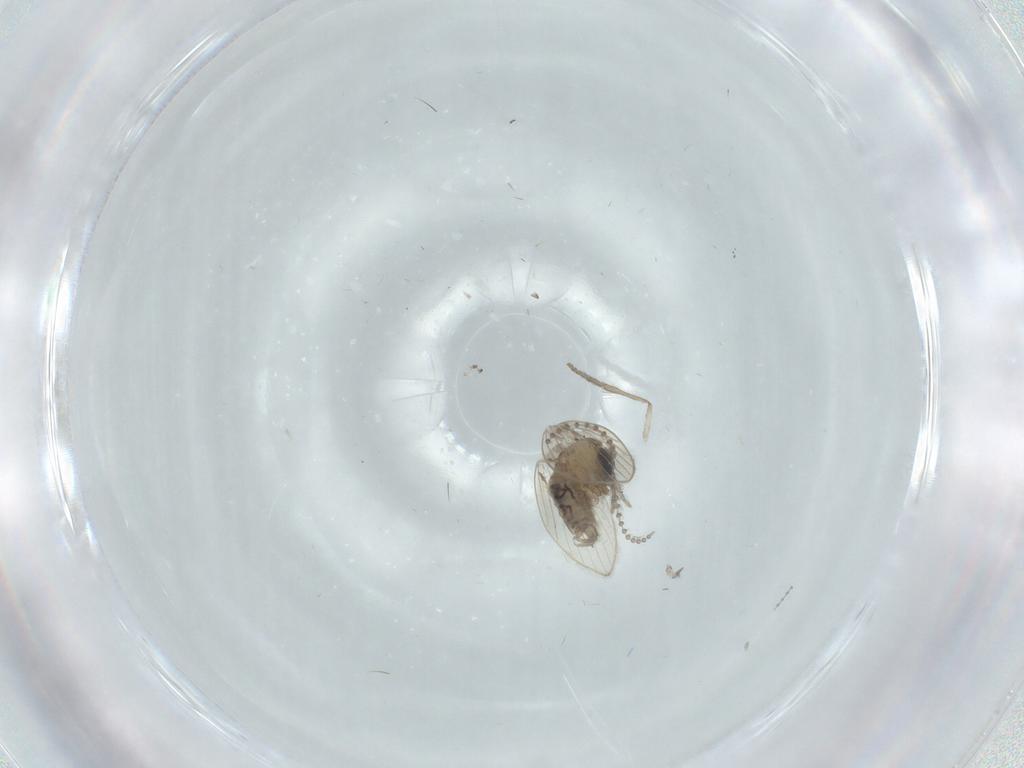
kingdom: Animalia
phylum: Arthropoda
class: Insecta
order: Diptera
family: Psychodidae
